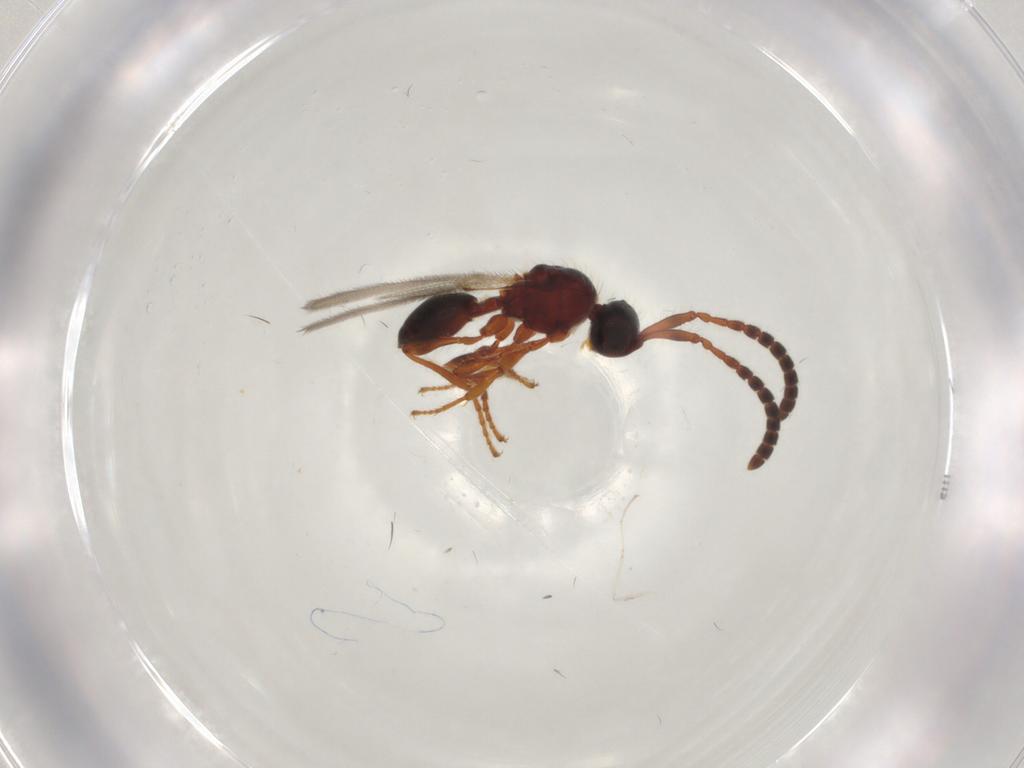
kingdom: Animalia
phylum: Arthropoda
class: Insecta
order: Hymenoptera
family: Diapriidae
